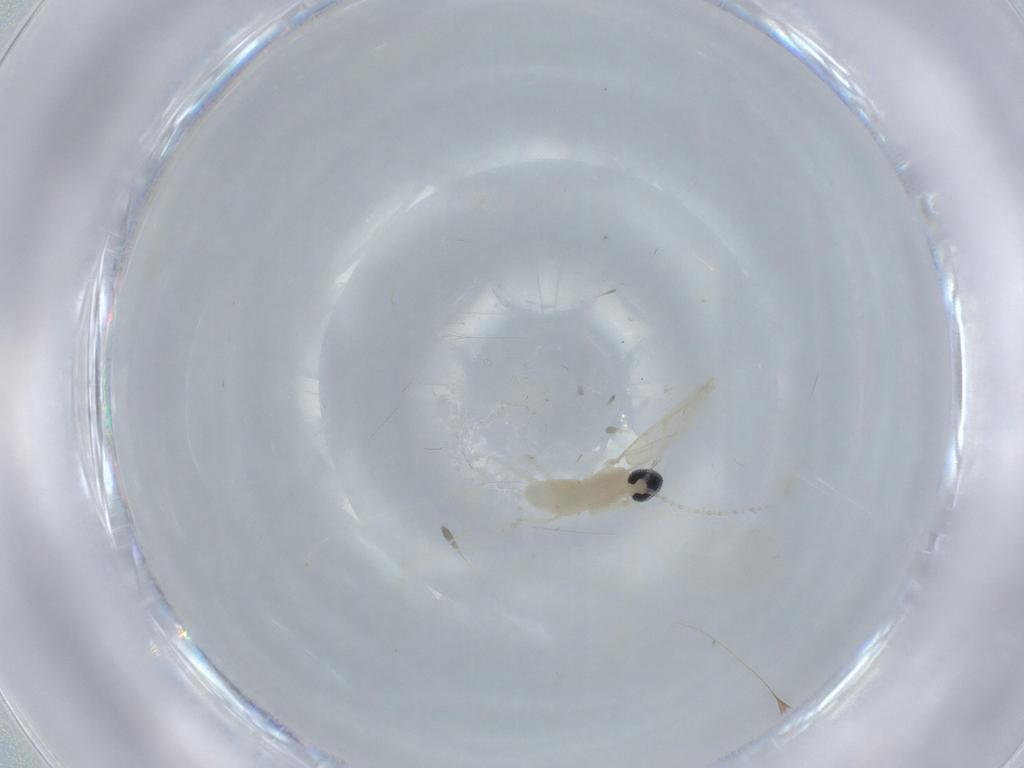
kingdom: Animalia
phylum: Arthropoda
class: Insecta
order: Diptera
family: Cecidomyiidae
